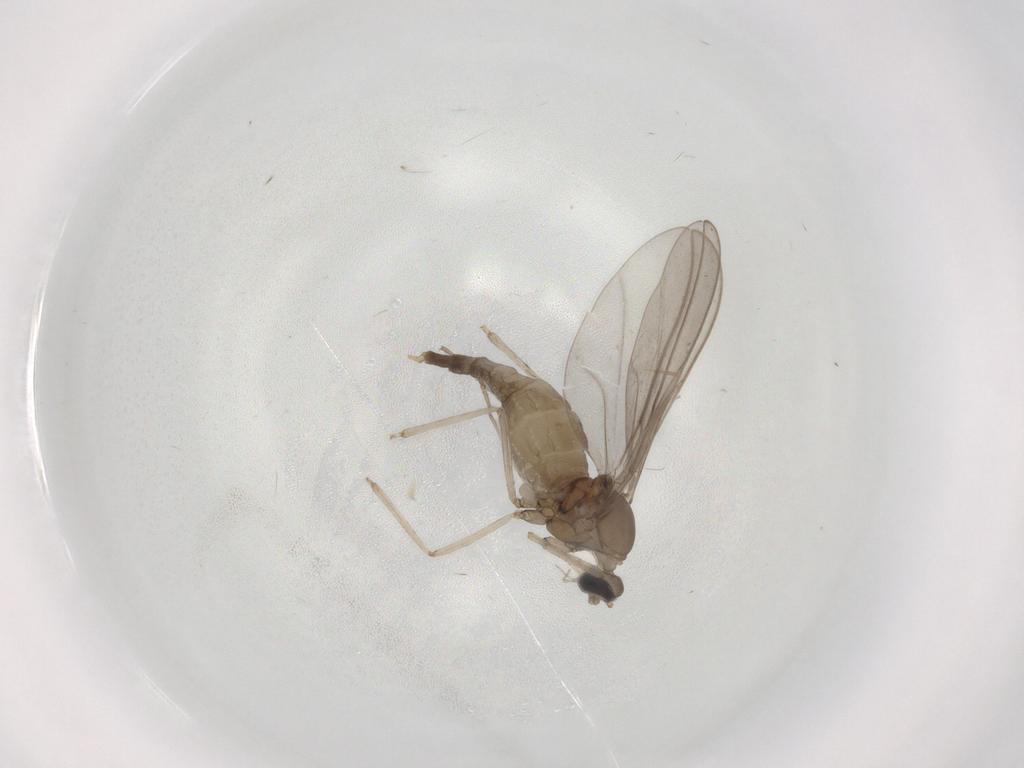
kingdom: Animalia
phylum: Arthropoda
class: Insecta
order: Diptera
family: Cecidomyiidae
